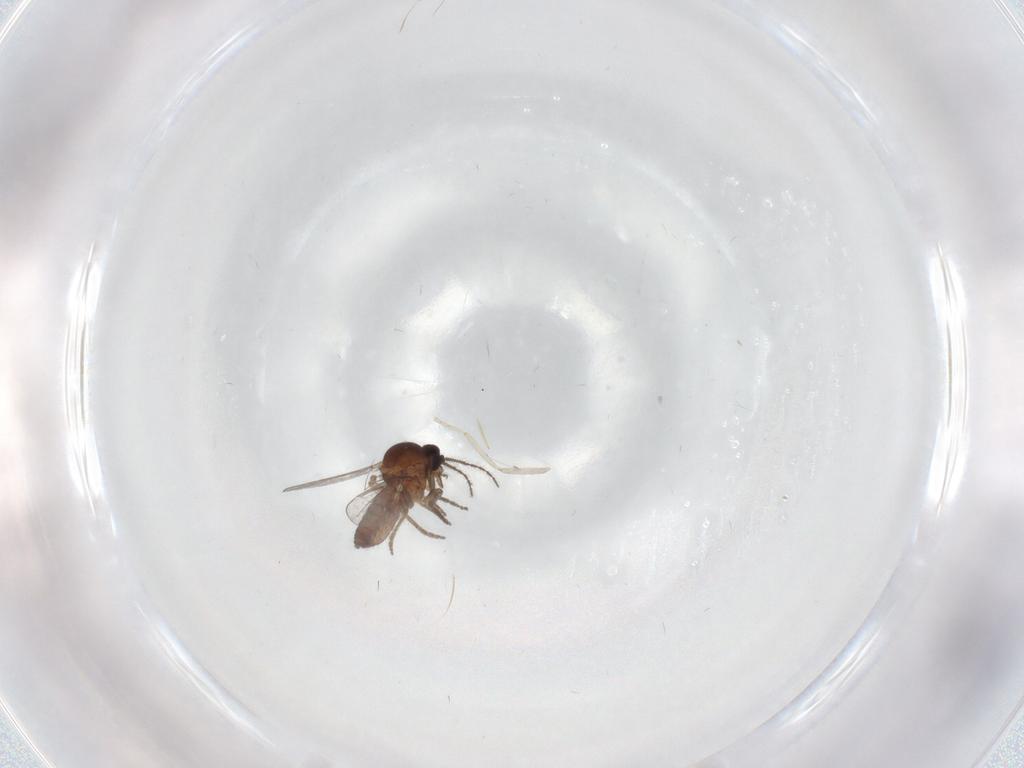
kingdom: Animalia
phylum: Arthropoda
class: Insecta
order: Diptera
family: Ceratopogonidae
